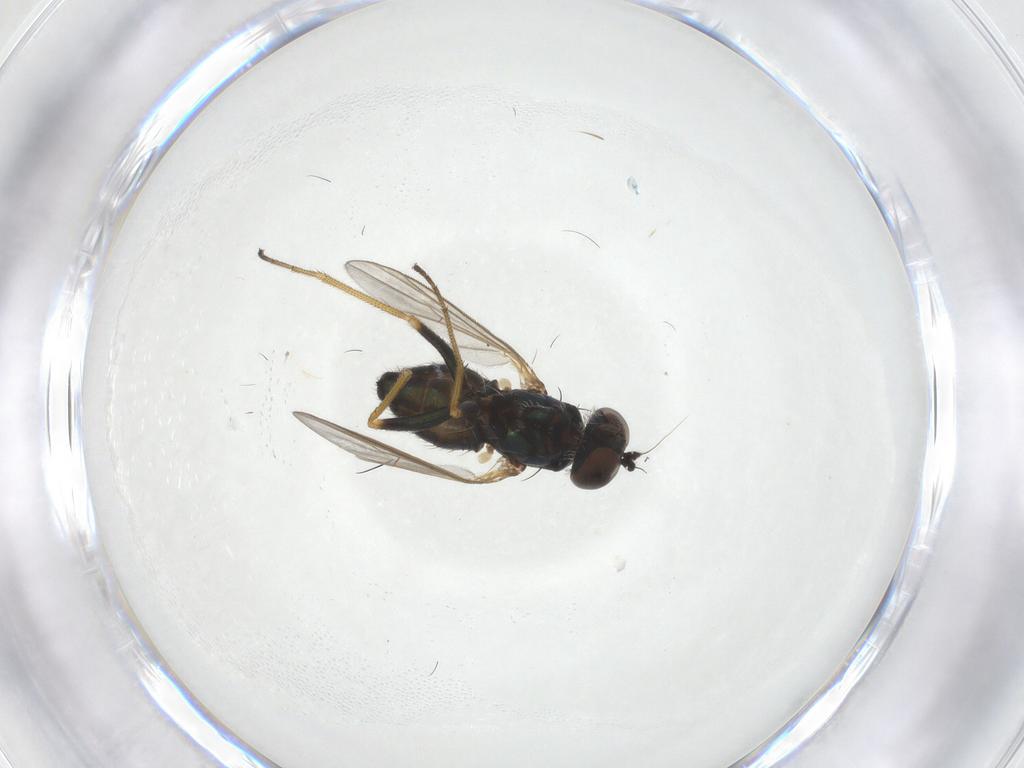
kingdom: Animalia
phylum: Arthropoda
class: Insecta
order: Diptera
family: Dolichopodidae
